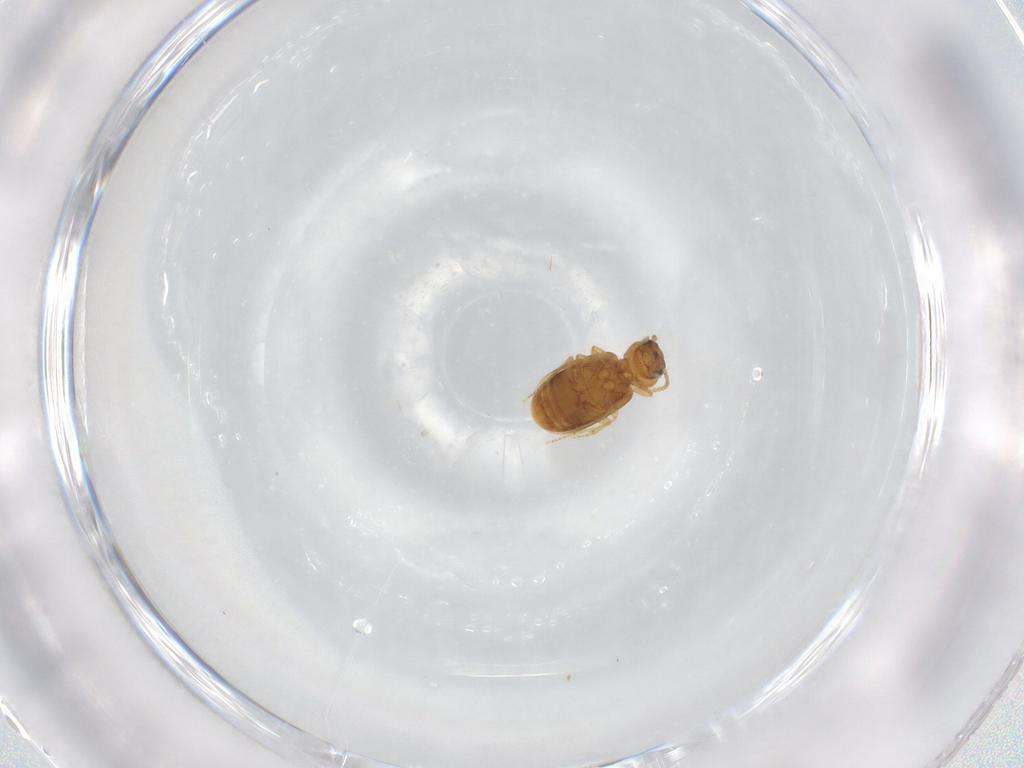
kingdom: Animalia
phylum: Arthropoda
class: Insecta
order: Coleoptera
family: Carabidae
